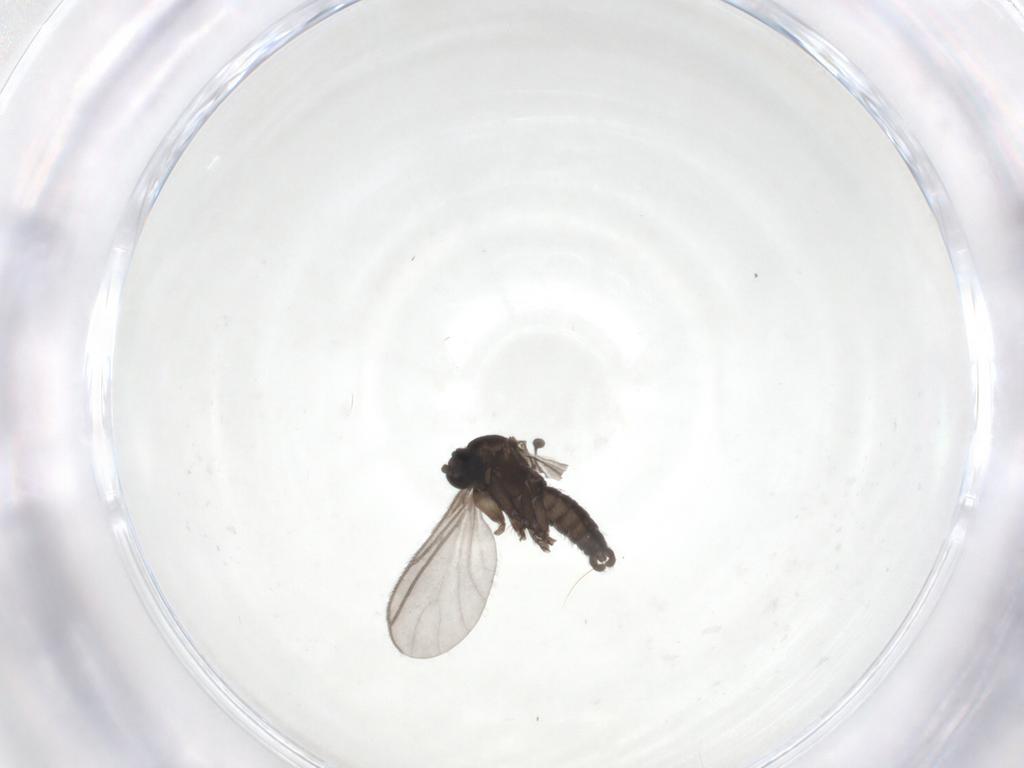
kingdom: Animalia
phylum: Arthropoda
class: Insecta
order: Diptera
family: Sciaridae
